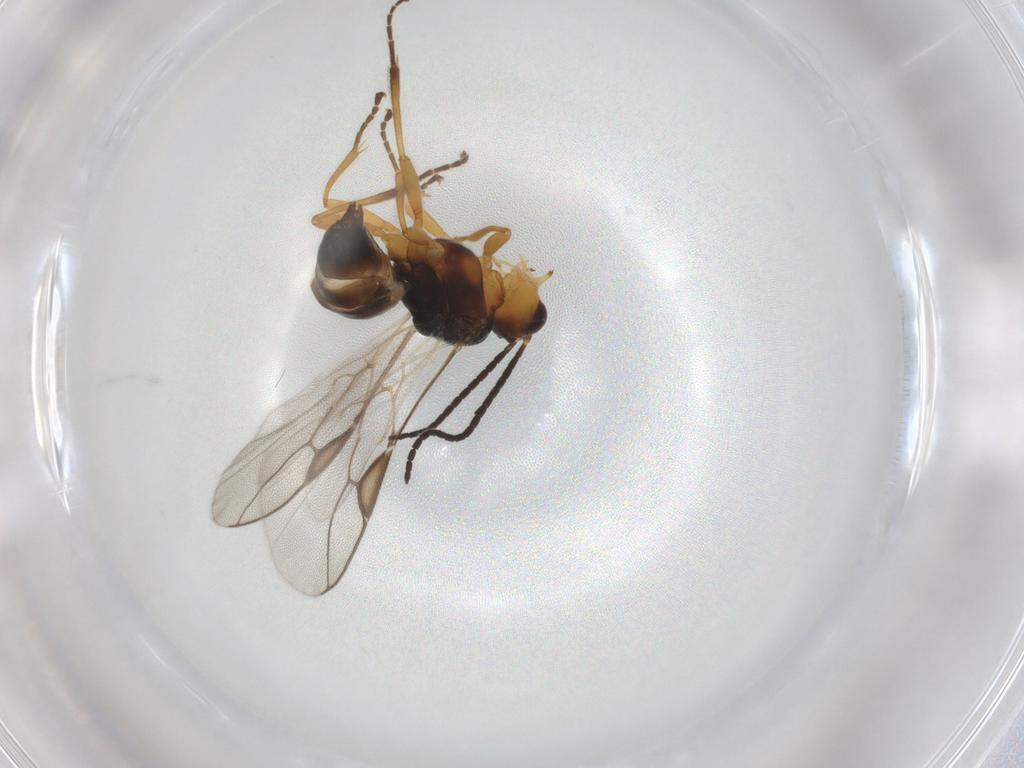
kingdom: Animalia
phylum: Arthropoda
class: Insecta
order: Hymenoptera
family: Braconidae
